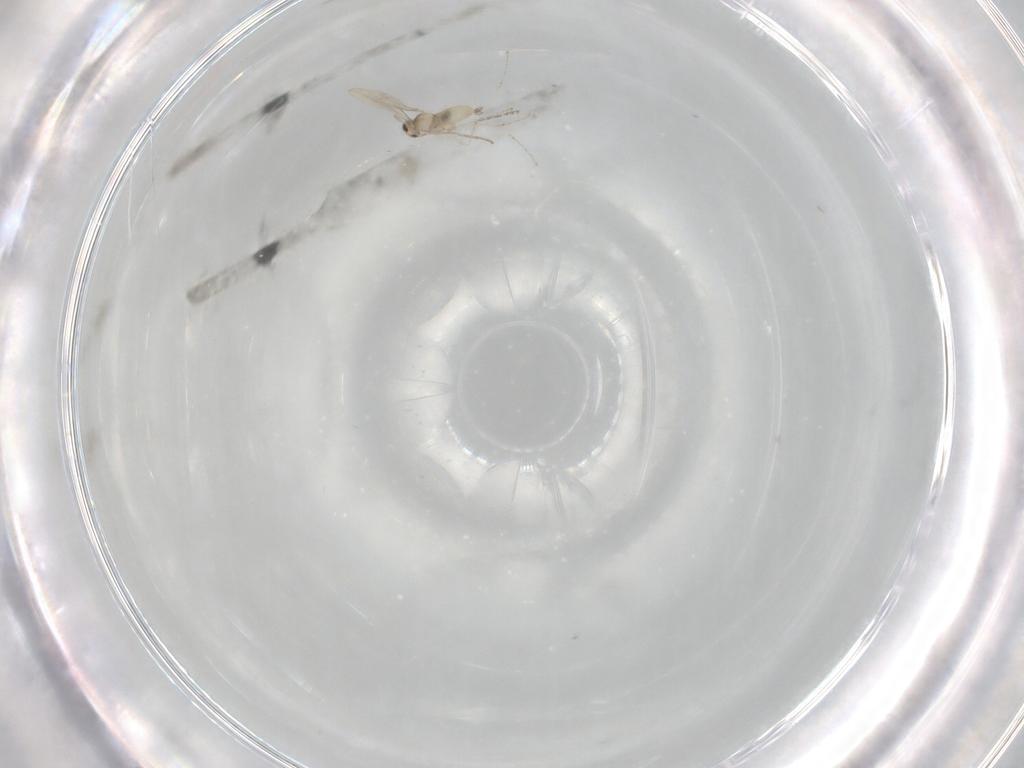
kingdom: Animalia
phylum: Arthropoda
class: Insecta
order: Diptera
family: Cecidomyiidae
